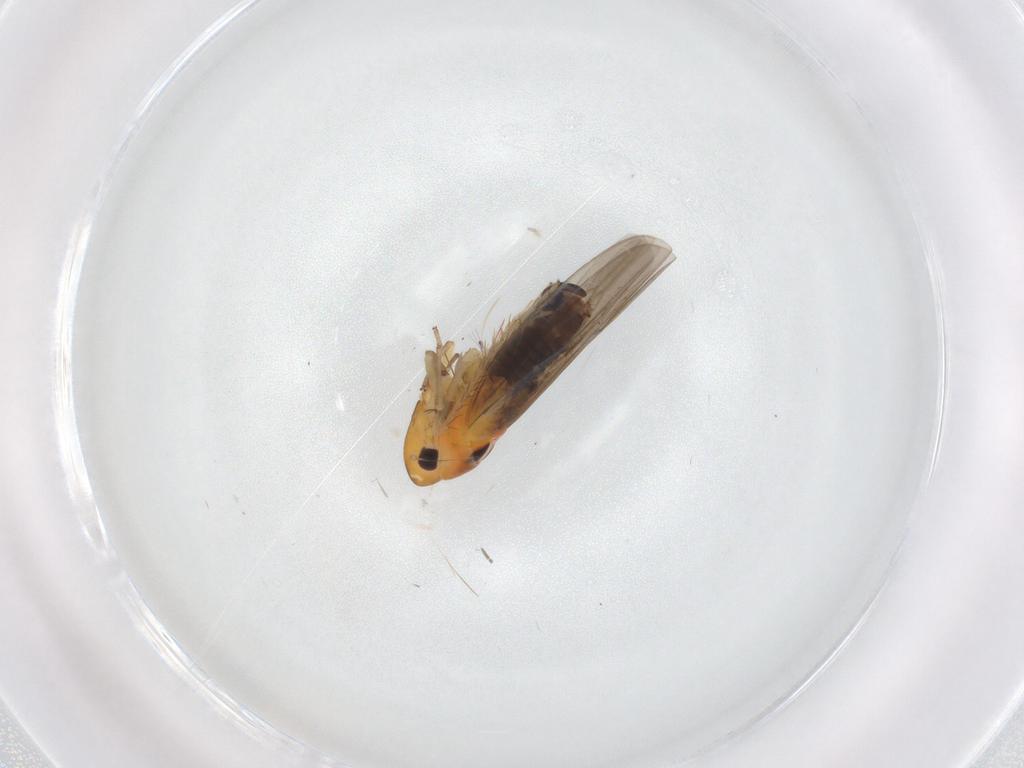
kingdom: Animalia
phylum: Arthropoda
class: Insecta
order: Hemiptera
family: Cicadellidae
